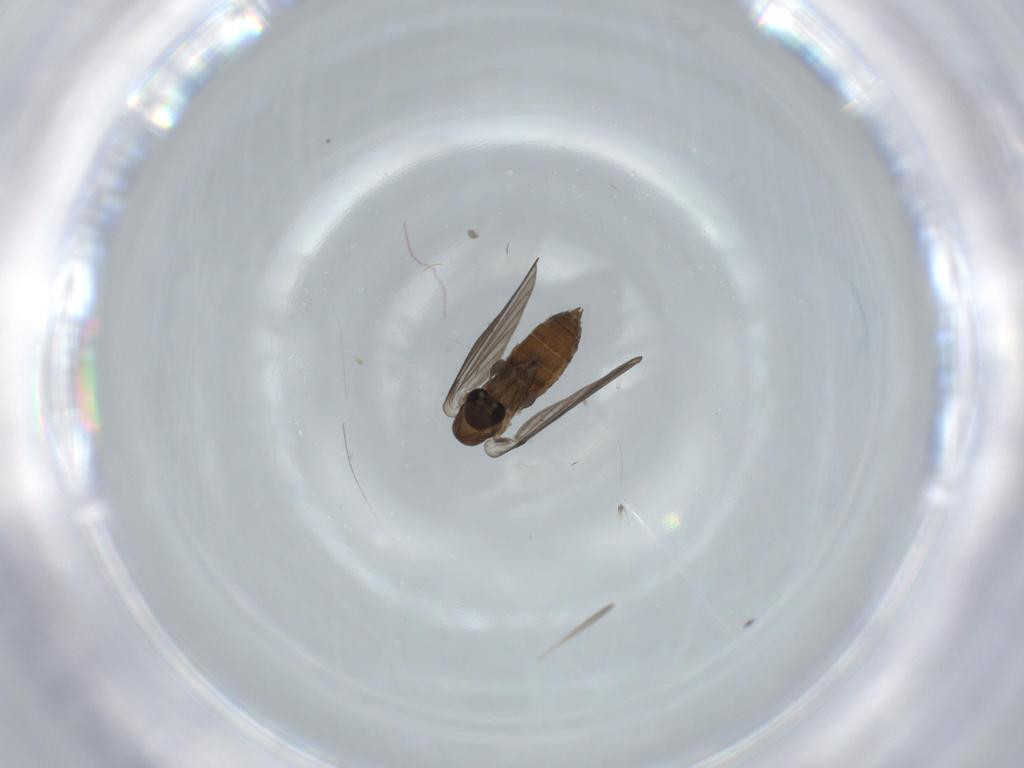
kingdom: Animalia
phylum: Arthropoda
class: Insecta
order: Diptera
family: Psychodidae
